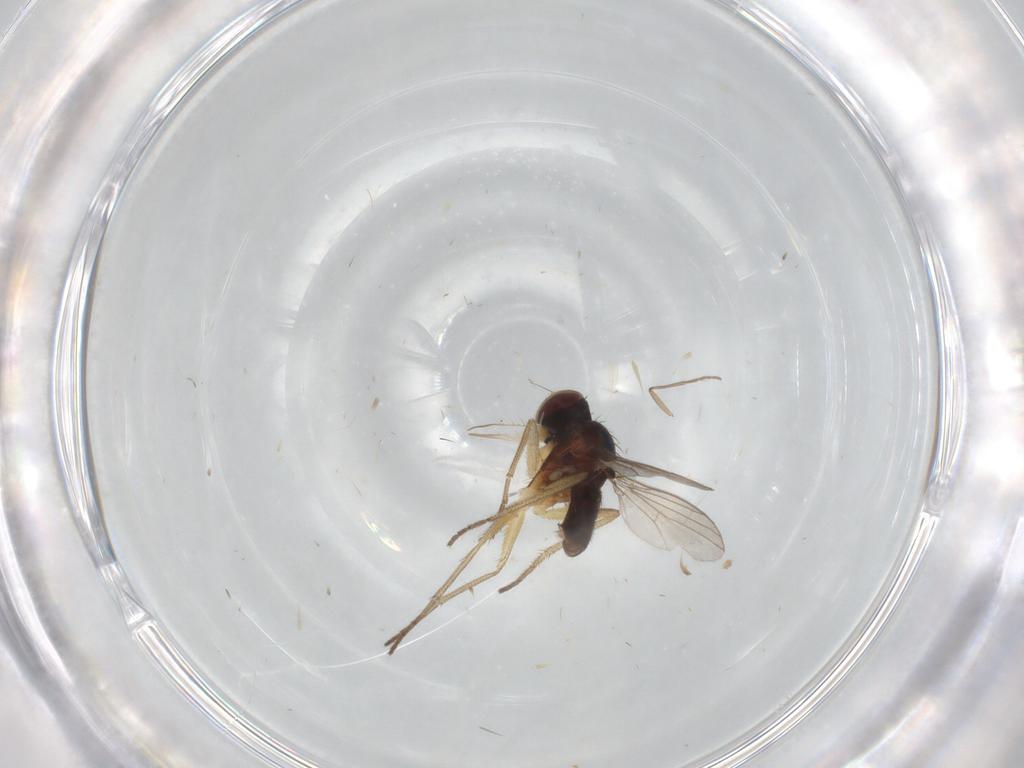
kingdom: Animalia
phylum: Arthropoda
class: Insecta
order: Diptera
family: Dolichopodidae
